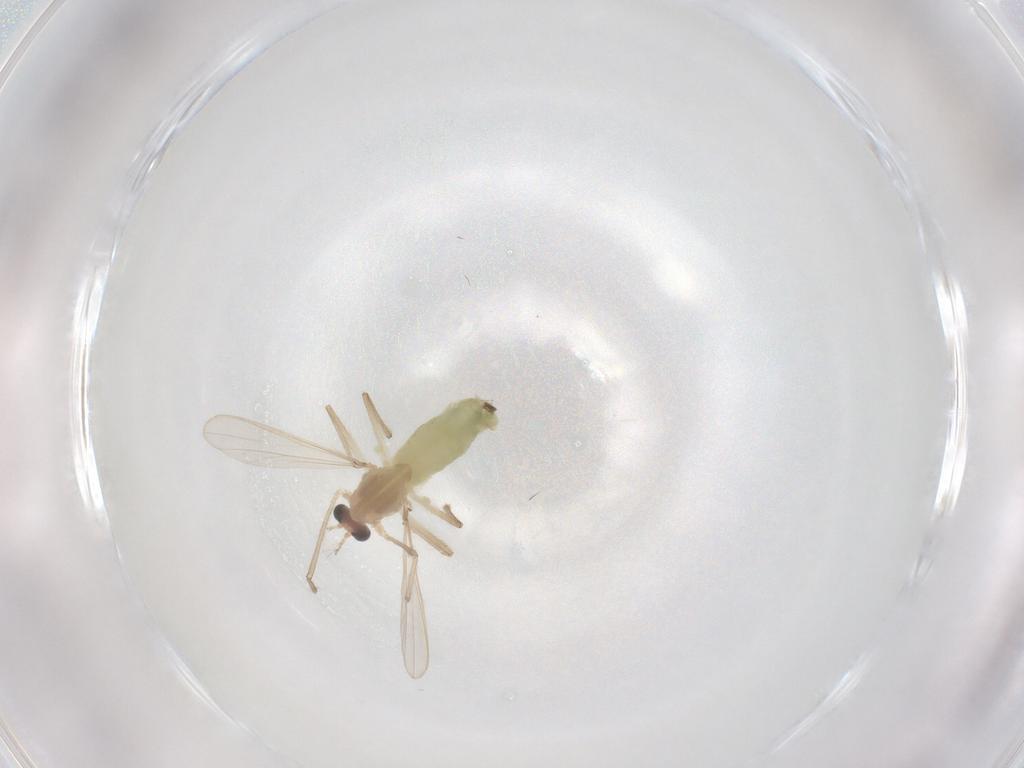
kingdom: Animalia
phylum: Arthropoda
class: Insecta
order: Diptera
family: Chironomidae
